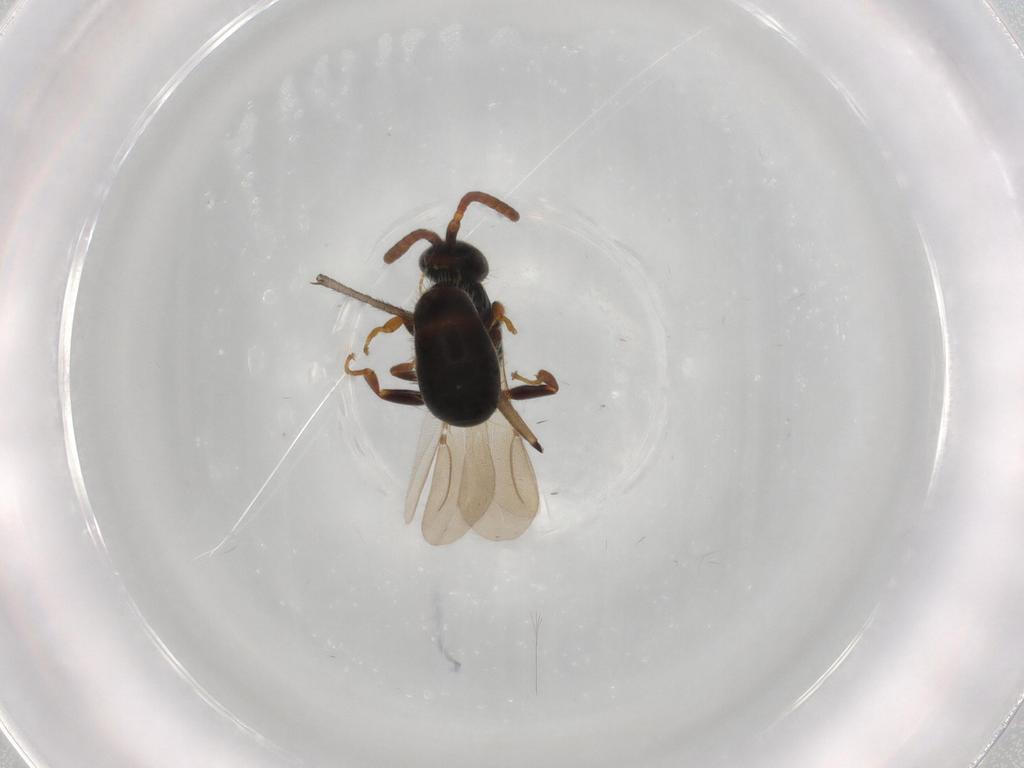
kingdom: Animalia
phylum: Arthropoda
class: Insecta
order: Hymenoptera
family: Bethylidae
